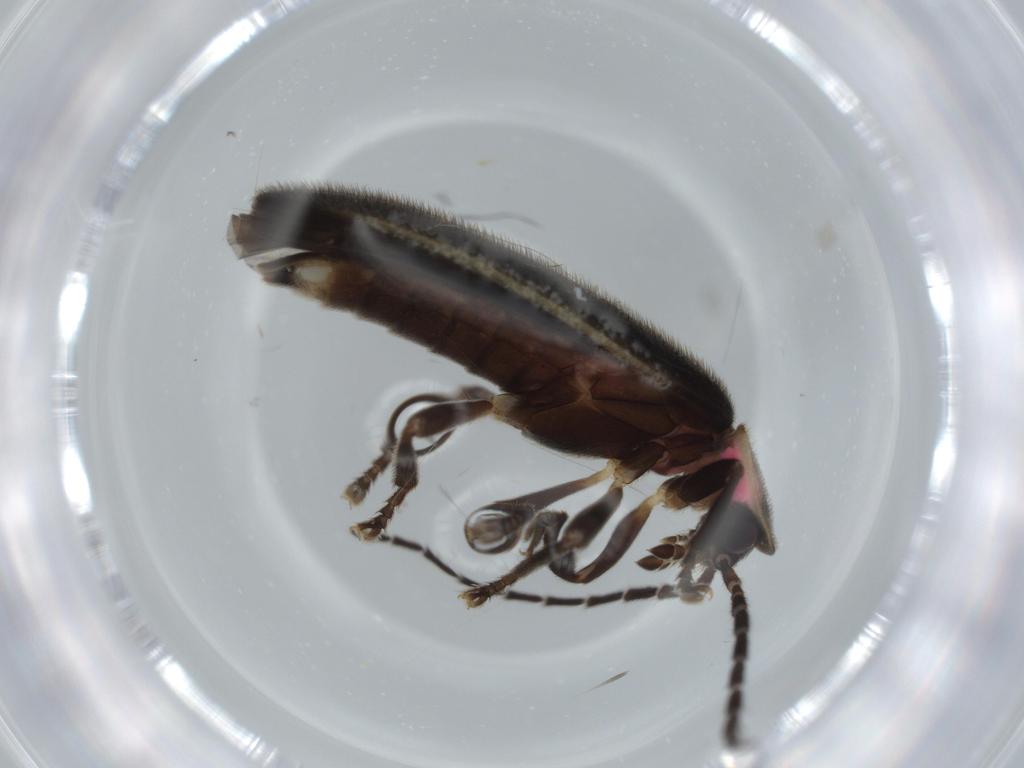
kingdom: Animalia
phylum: Arthropoda
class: Insecta
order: Coleoptera
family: Lampyridae
